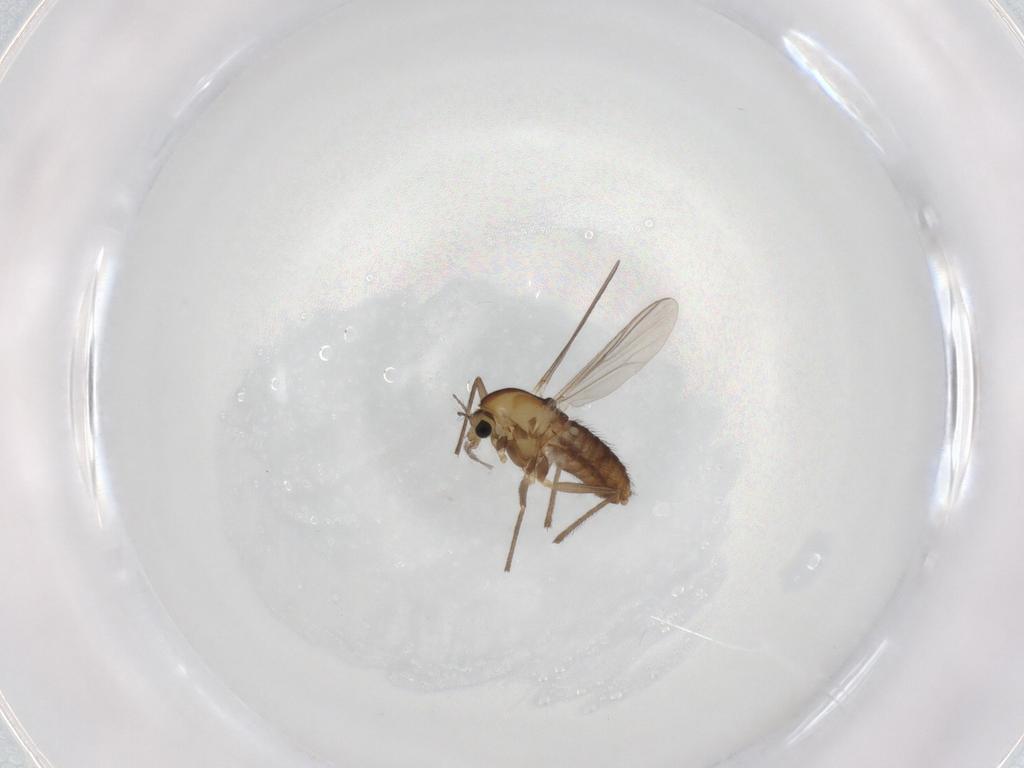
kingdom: Animalia
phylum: Arthropoda
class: Insecta
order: Diptera
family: Chironomidae
